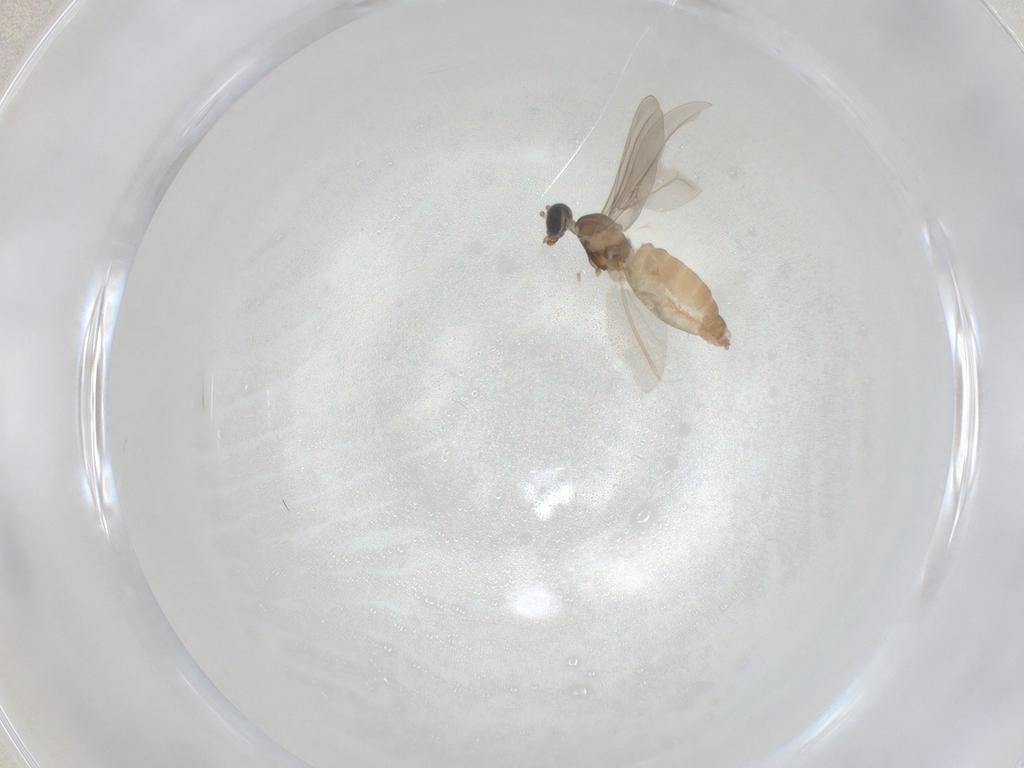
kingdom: Animalia
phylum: Arthropoda
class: Insecta
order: Diptera
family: Cecidomyiidae
